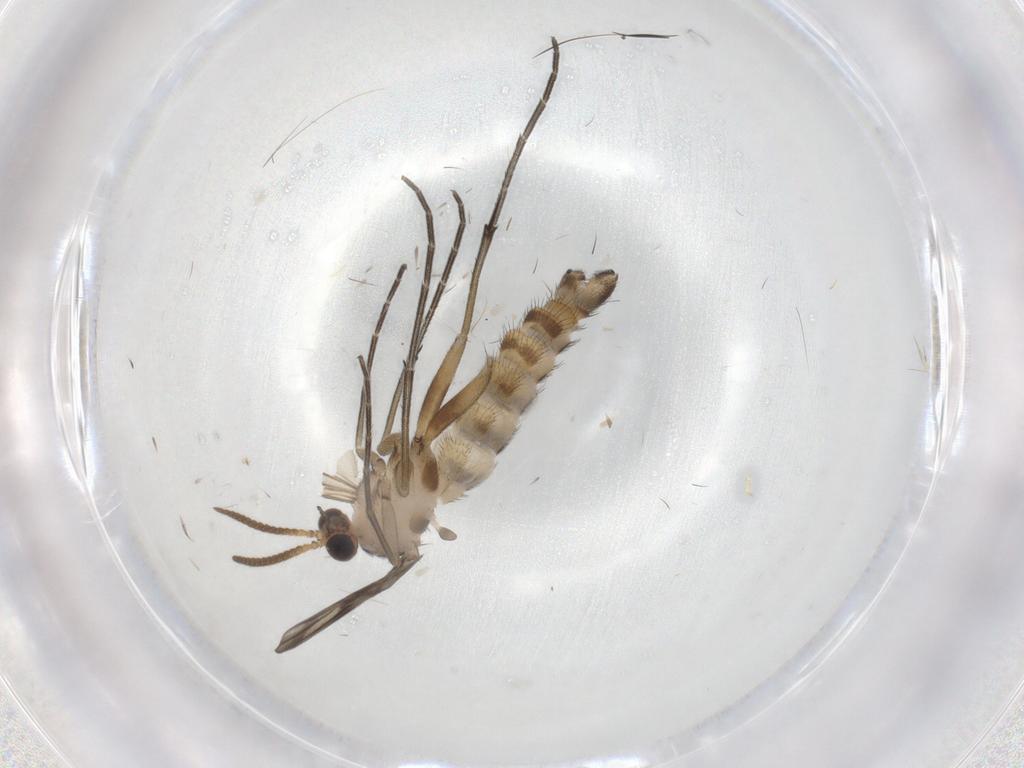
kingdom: Animalia
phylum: Arthropoda
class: Insecta
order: Diptera
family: Keroplatidae
